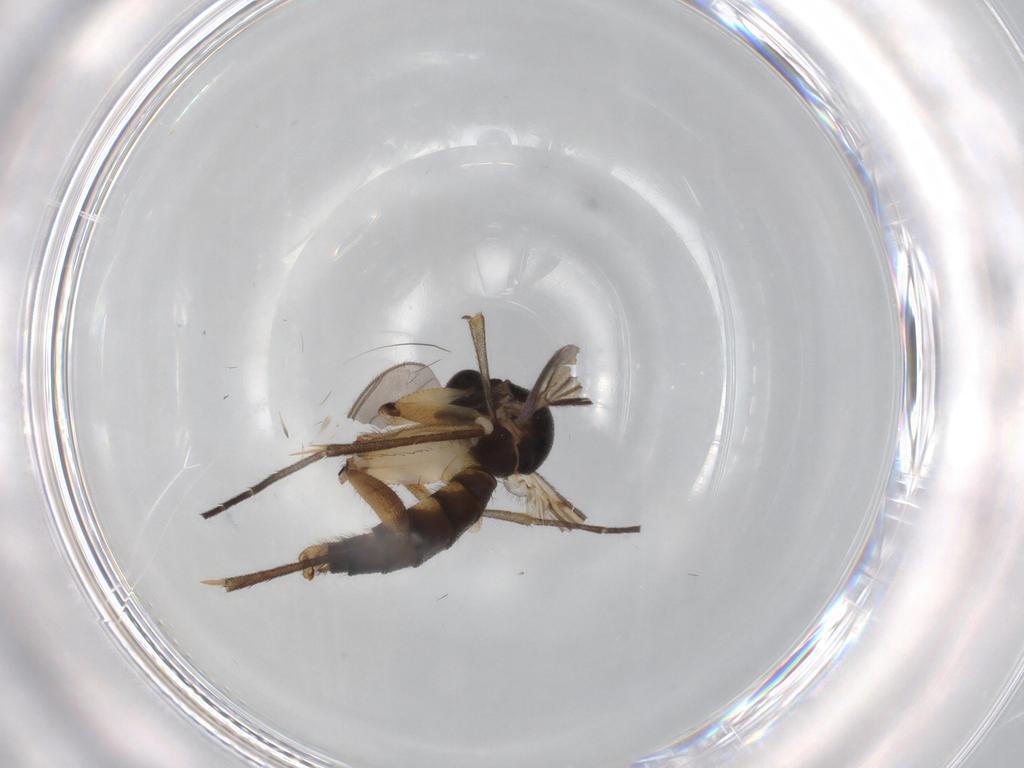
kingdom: Animalia
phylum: Arthropoda
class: Insecta
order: Diptera
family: Sciaridae
